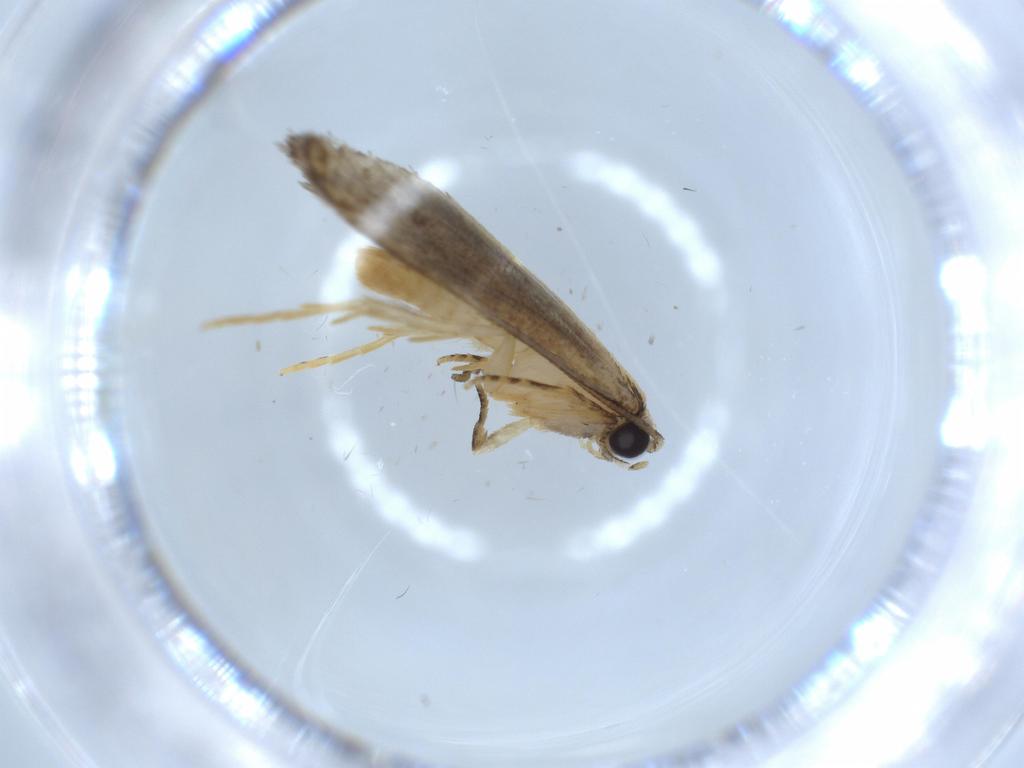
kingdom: Animalia
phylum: Arthropoda
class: Insecta
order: Lepidoptera
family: Tineidae
